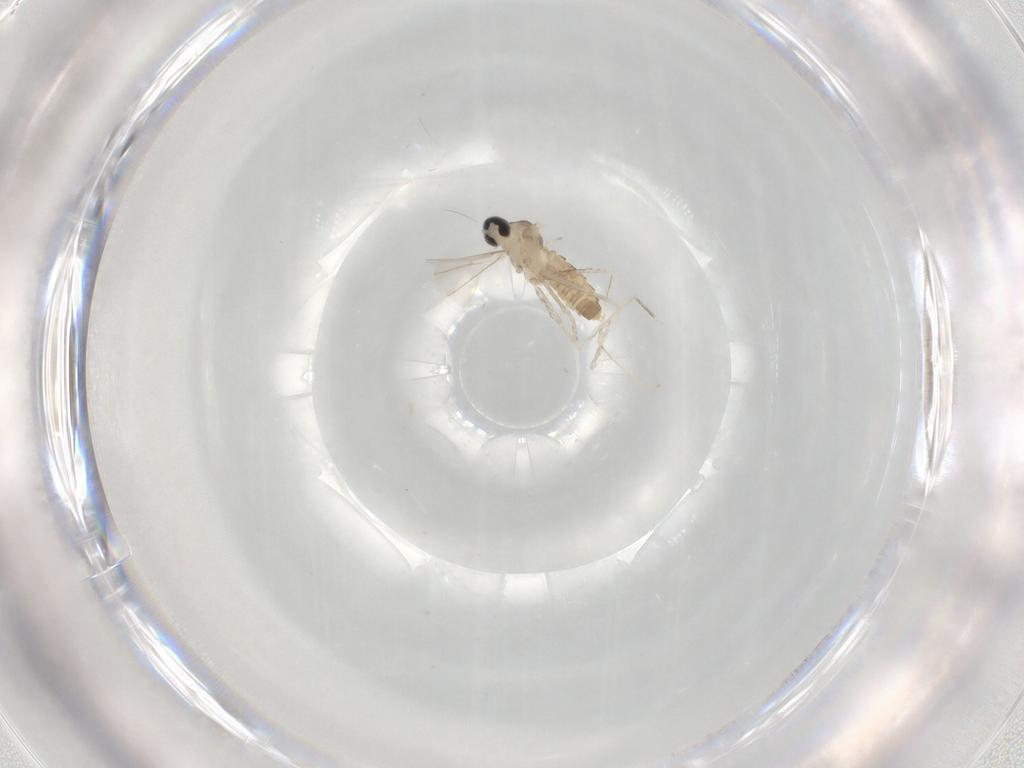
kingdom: Animalia
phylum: Arthropoda
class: Insecta
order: Diptera
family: Cecidomyiidae
